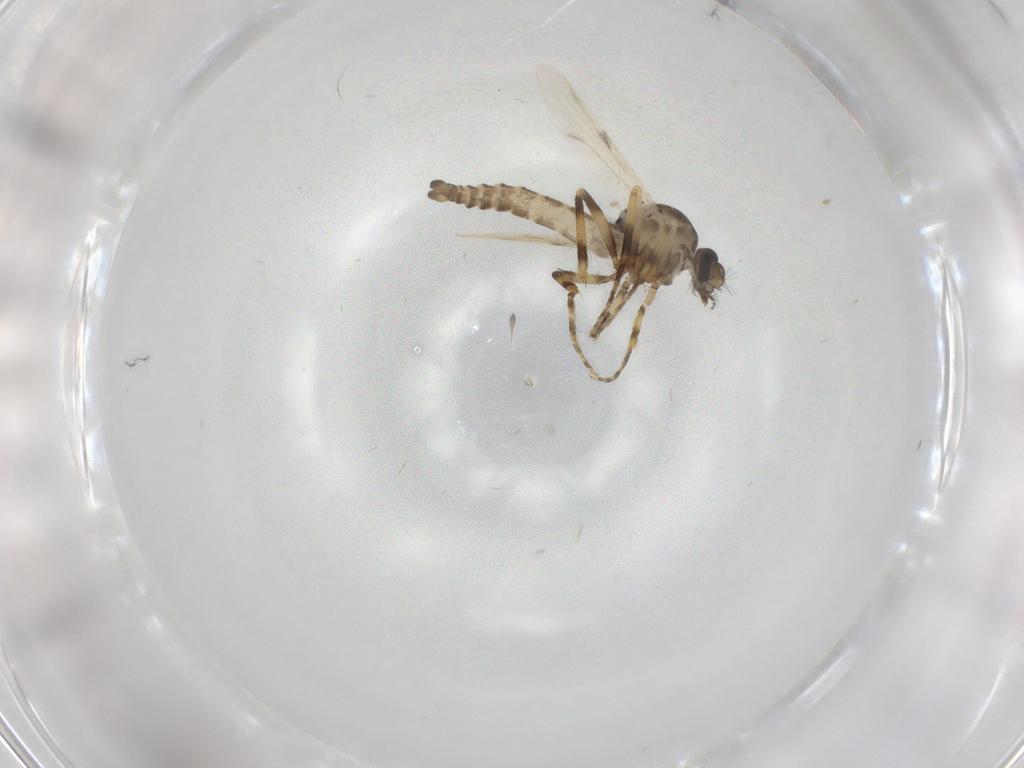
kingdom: Animalia
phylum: Arthropoda
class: Insecta
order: Diptera
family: Ceratopogonidae
